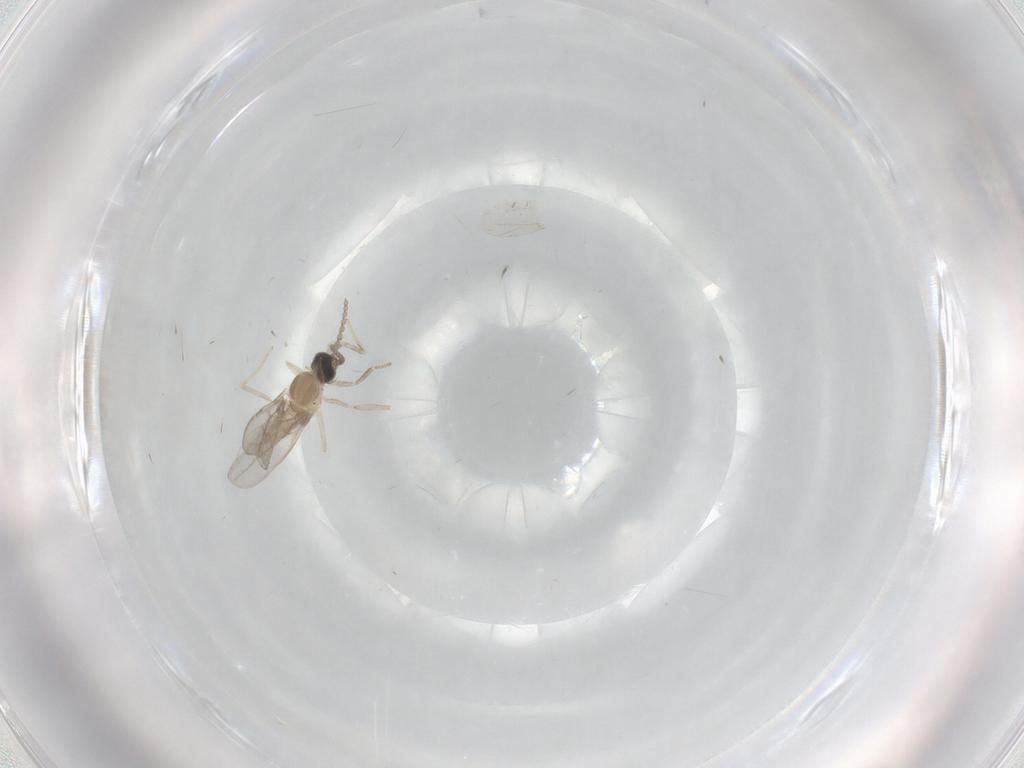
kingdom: Animalia
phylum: Arthropoda
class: Insecta
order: Diptera
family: Cecidomyiidae
